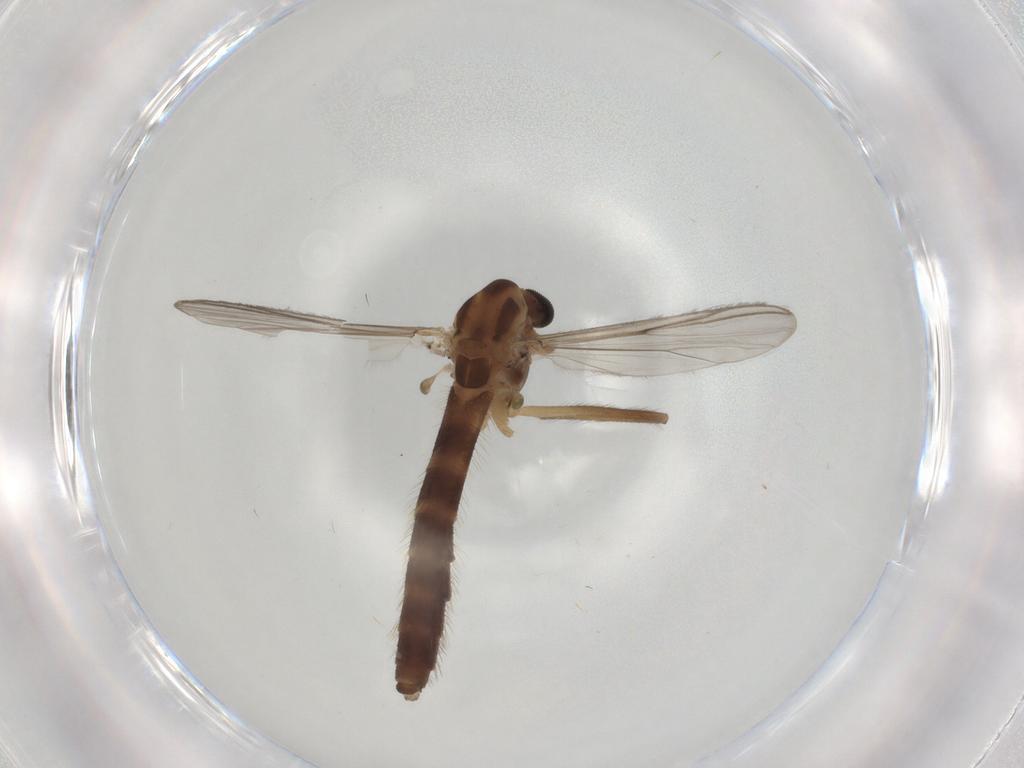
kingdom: Animalia
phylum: Arthropoda
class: Insecta
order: Diptera
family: Chironomidae
